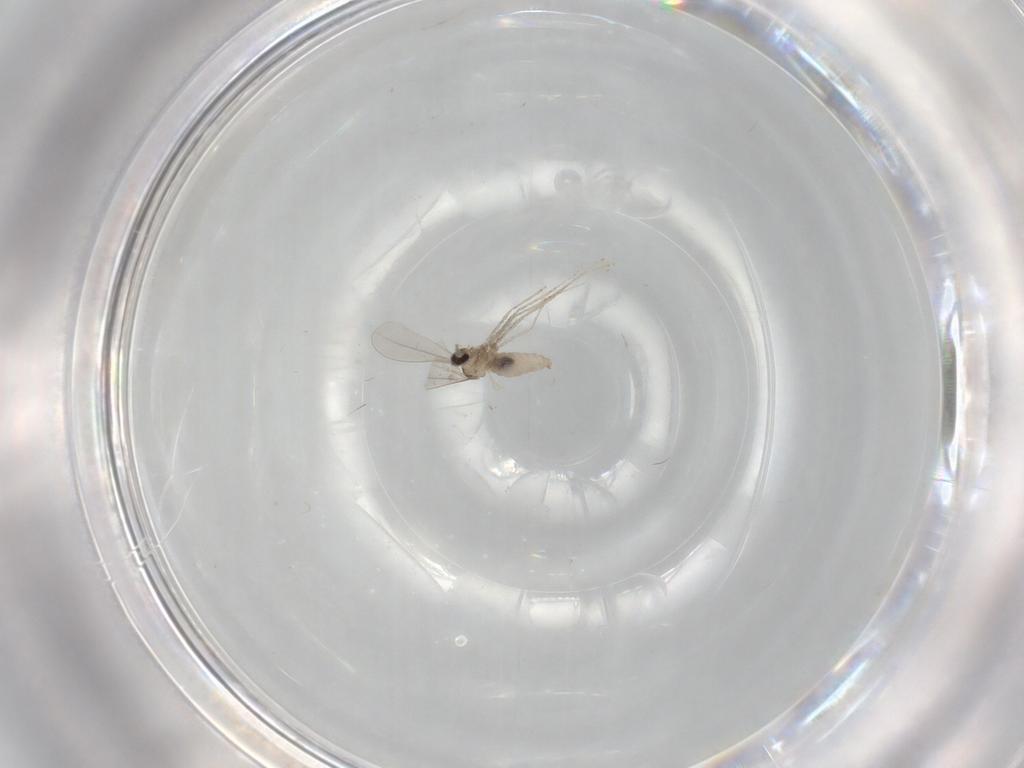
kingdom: Animalia
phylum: Arthropoda
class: Insecta
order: Diptera
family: Cecidomyiidae
